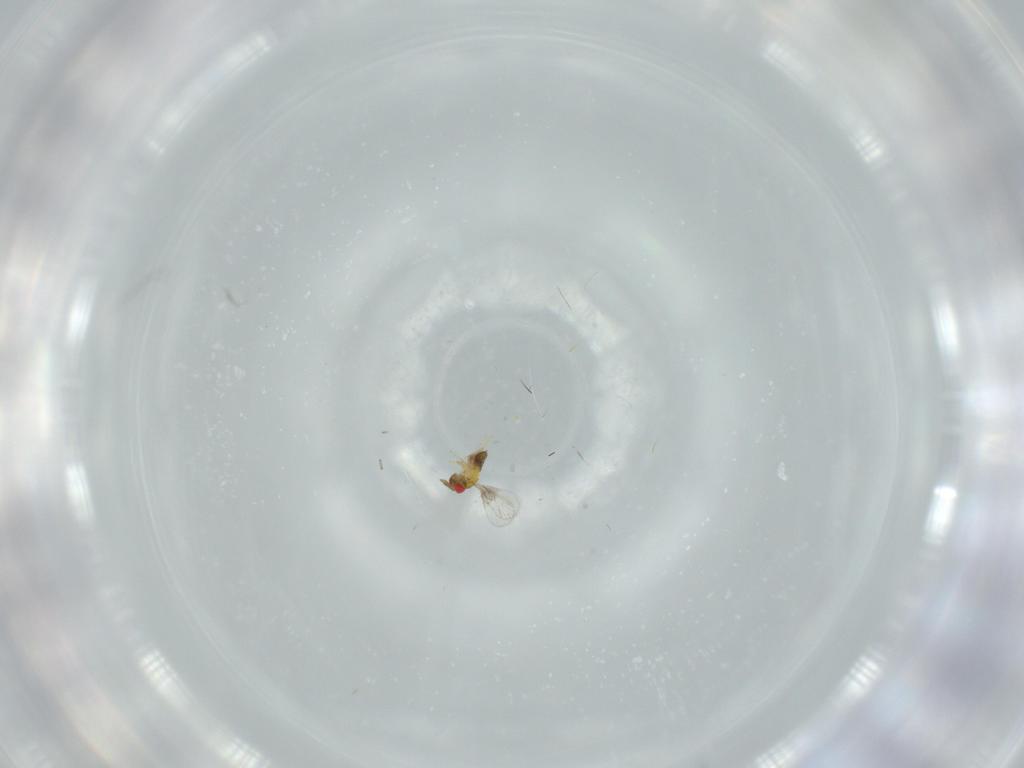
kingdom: Animalia
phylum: Arthropoda
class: Insecta
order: Hymenoptera
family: Trichogrammatidae
